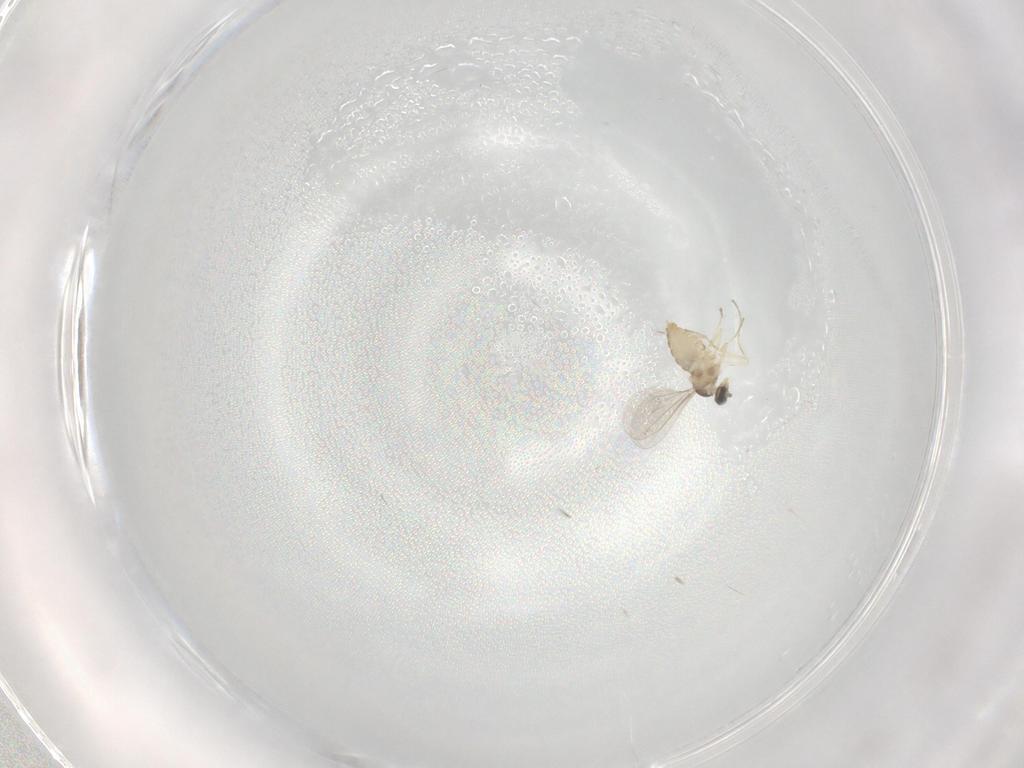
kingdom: Animalia
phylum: Arthropoda
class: Insecta
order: Diptera
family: Cecidomyiidae
